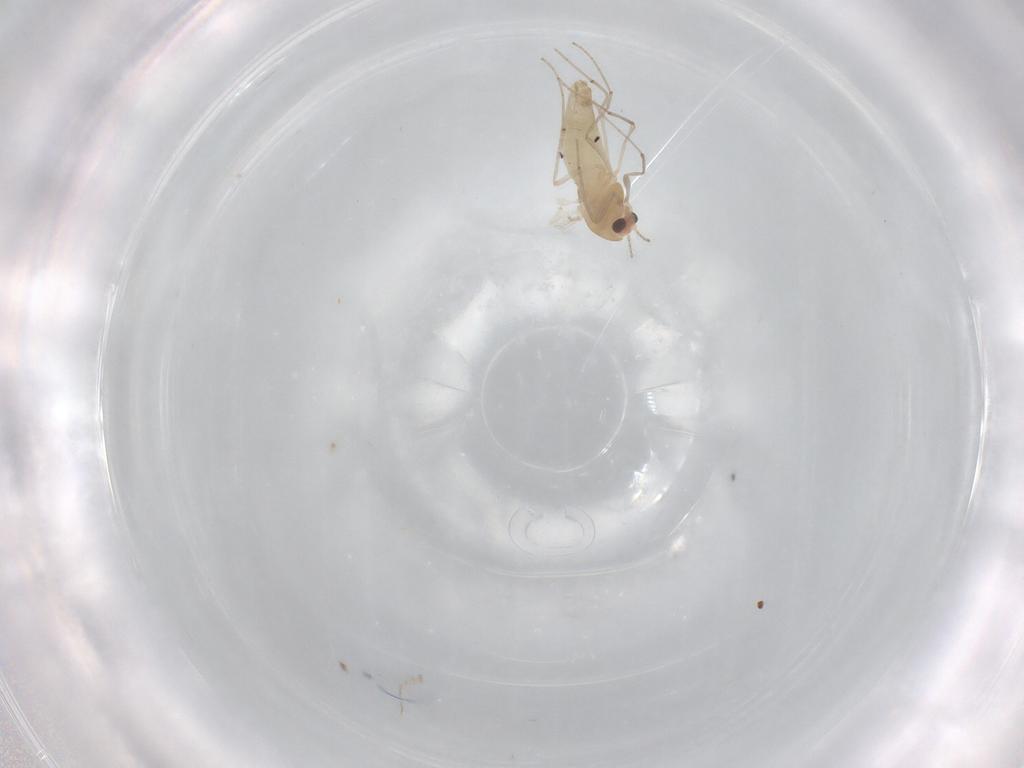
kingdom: Animalia
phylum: Arthropoda
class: Insecta
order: Diptera
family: Chironomidae
